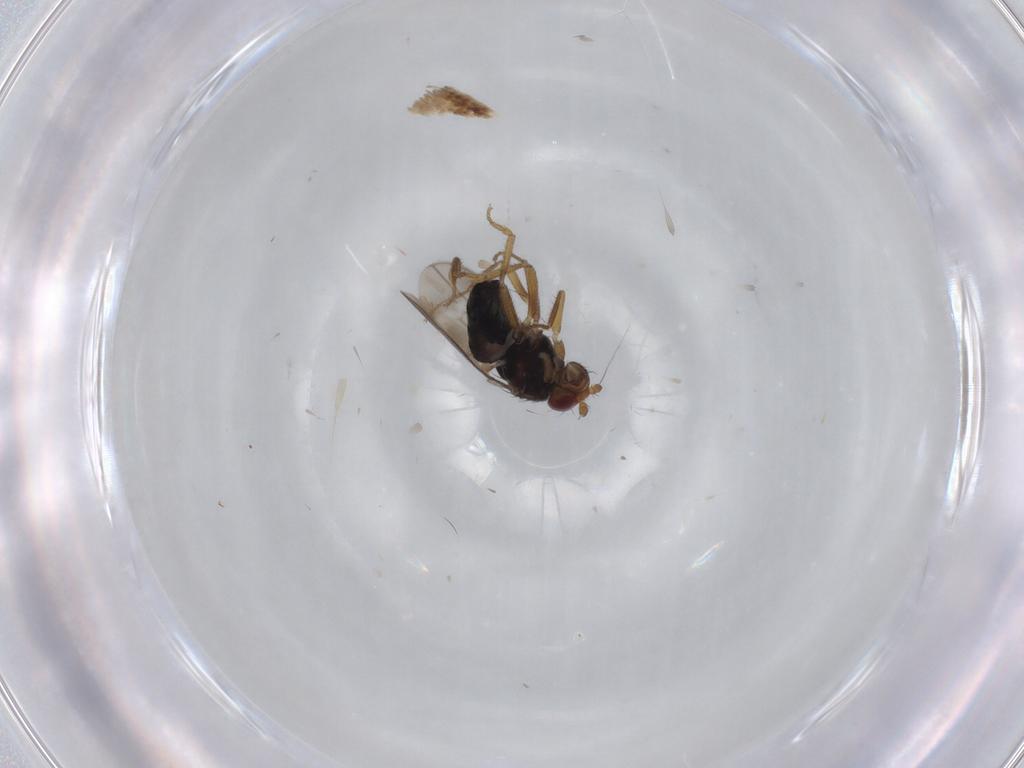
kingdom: Animalia
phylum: Arthropoda
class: Insecta
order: Diptera
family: Sphaeroceridae
